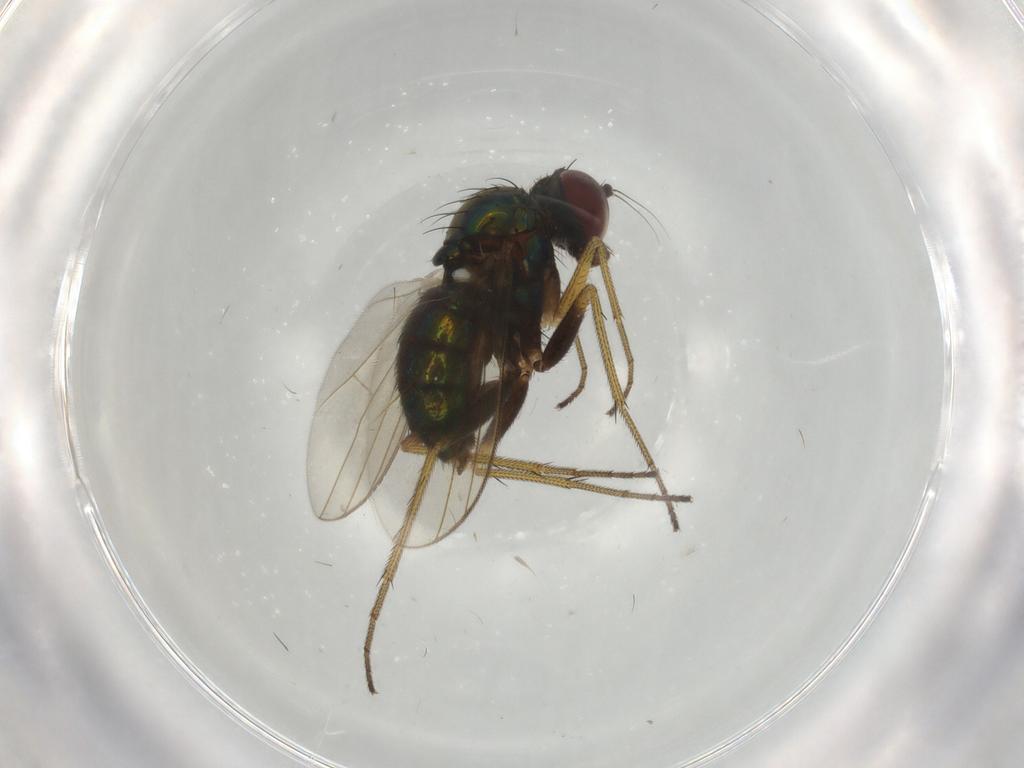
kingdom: Animalia
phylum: Arthropoda
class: Insecta
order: Diptera
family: Dolichopodidae
